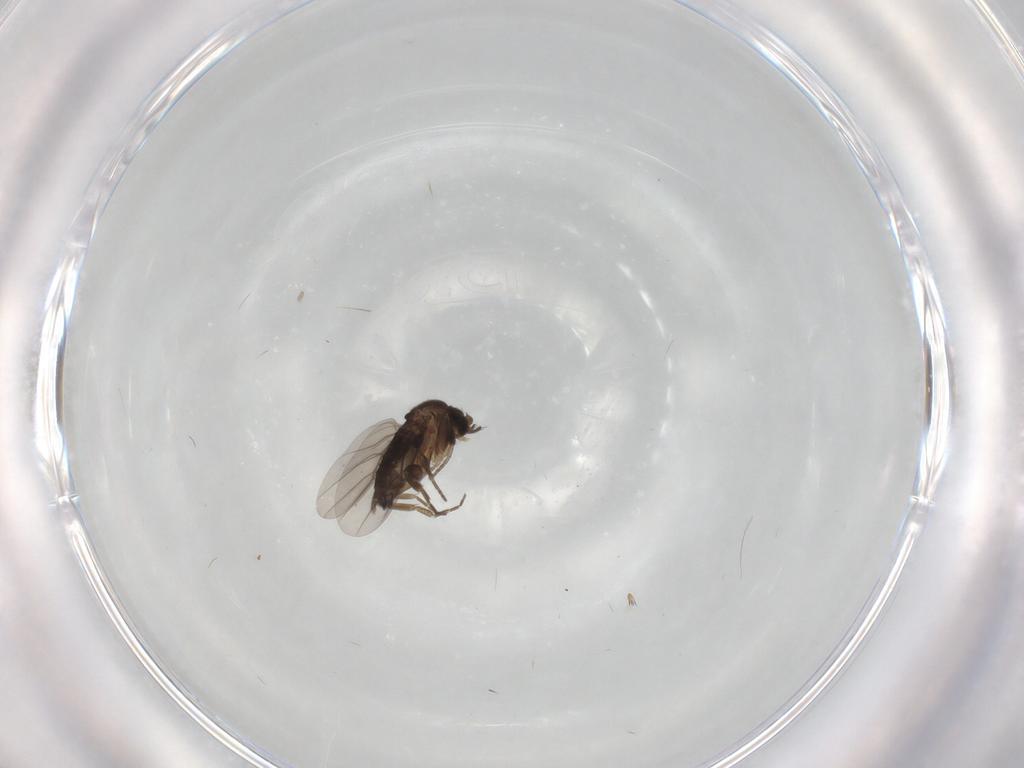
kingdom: Animalia
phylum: Arthropoda
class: Insecta
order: Diptera
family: Phoridae
